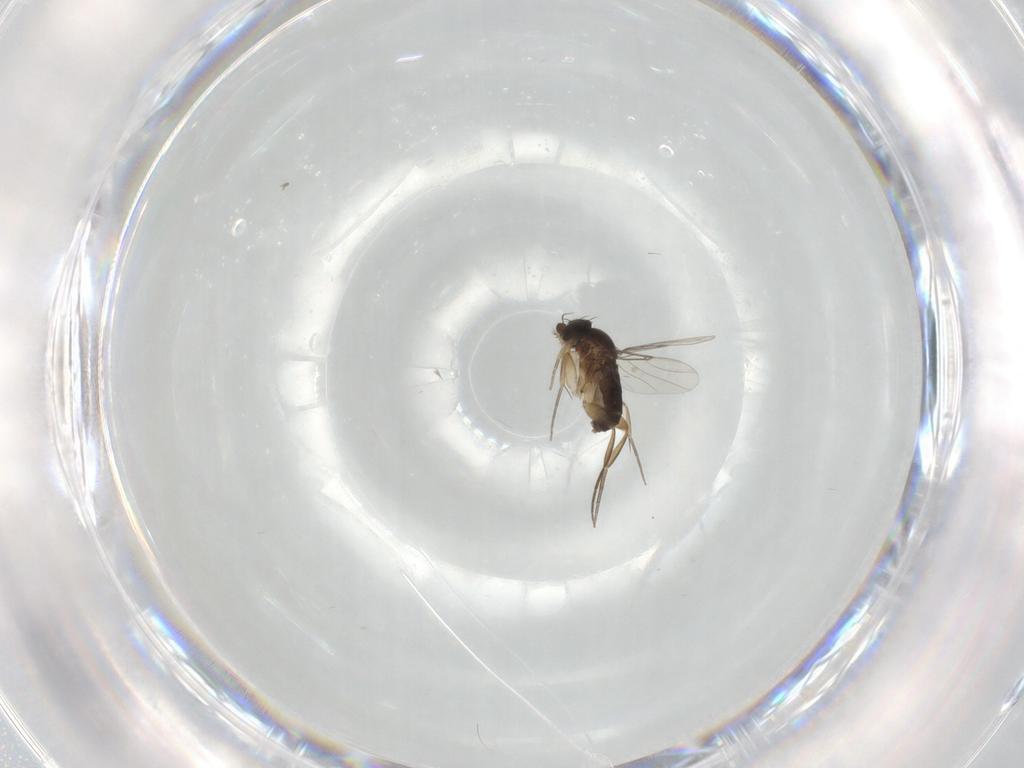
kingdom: Animalia
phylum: Arthropoda
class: Insecta
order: Diptera
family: Phoridae
